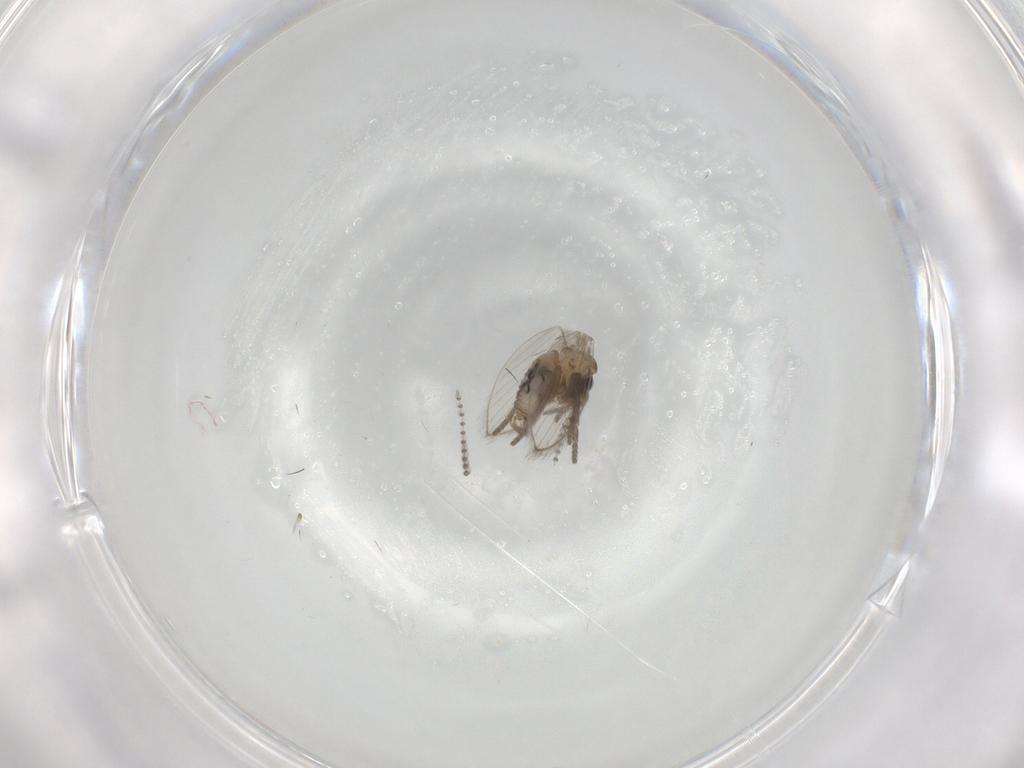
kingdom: Animalia
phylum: Arthropoda
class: Insecta
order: Diptera
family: Psychodidae
